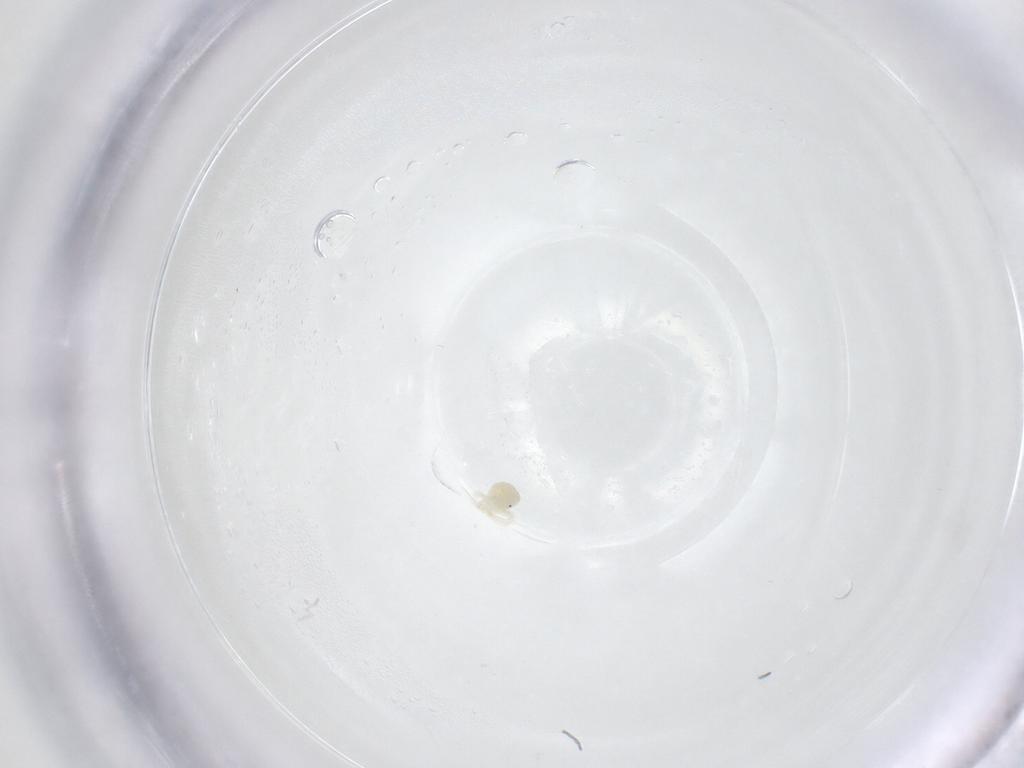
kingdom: Animalia
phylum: Arthropoda
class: Arachnida
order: Trombidiformes
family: Anystidae
